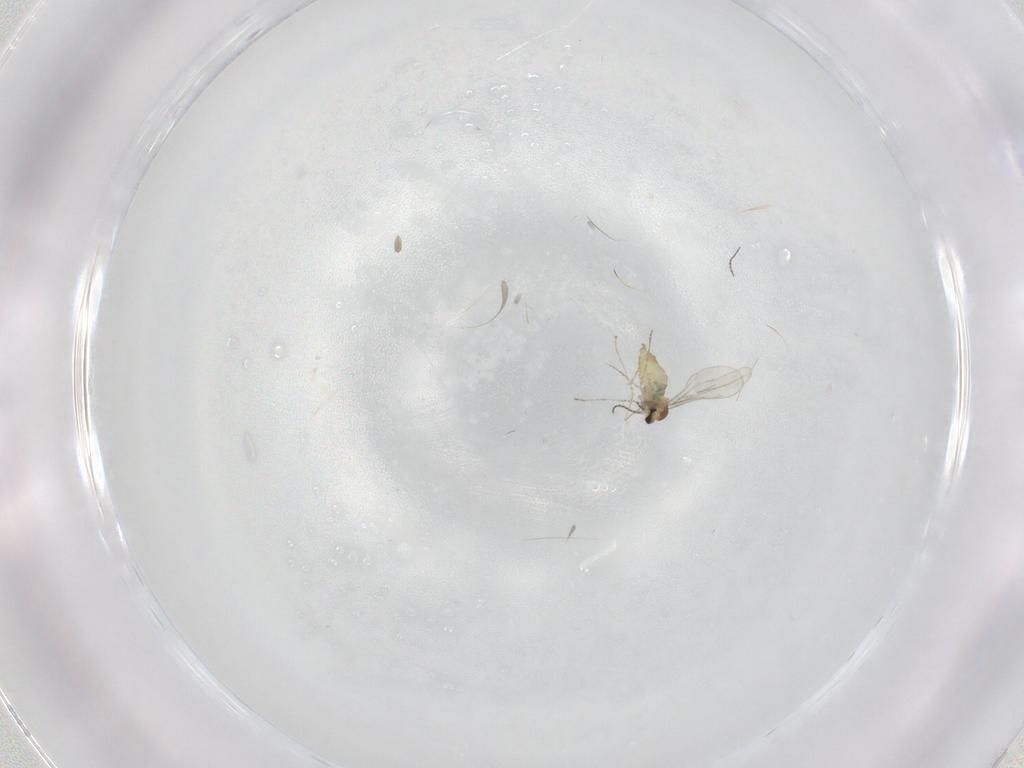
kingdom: Animalia
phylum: Arthropoda
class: Insecta
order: Diptera
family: Cecidomyiidae
